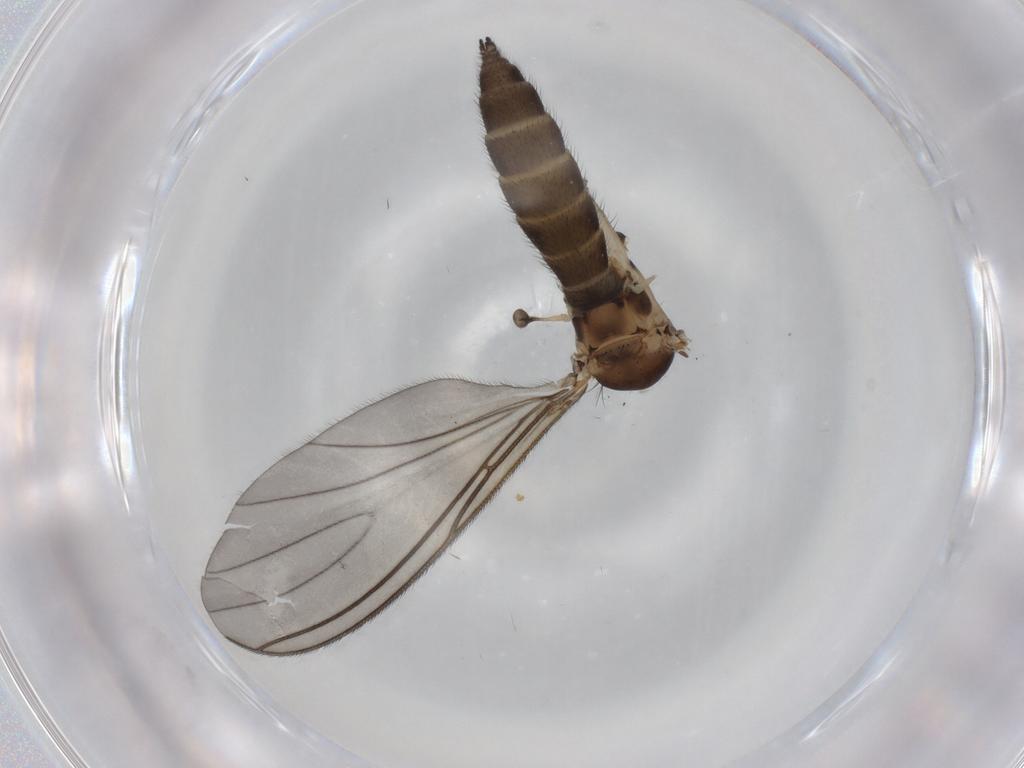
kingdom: Animalia
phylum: Arthropoda
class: Insecta
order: Diptera
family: Sciaridae
